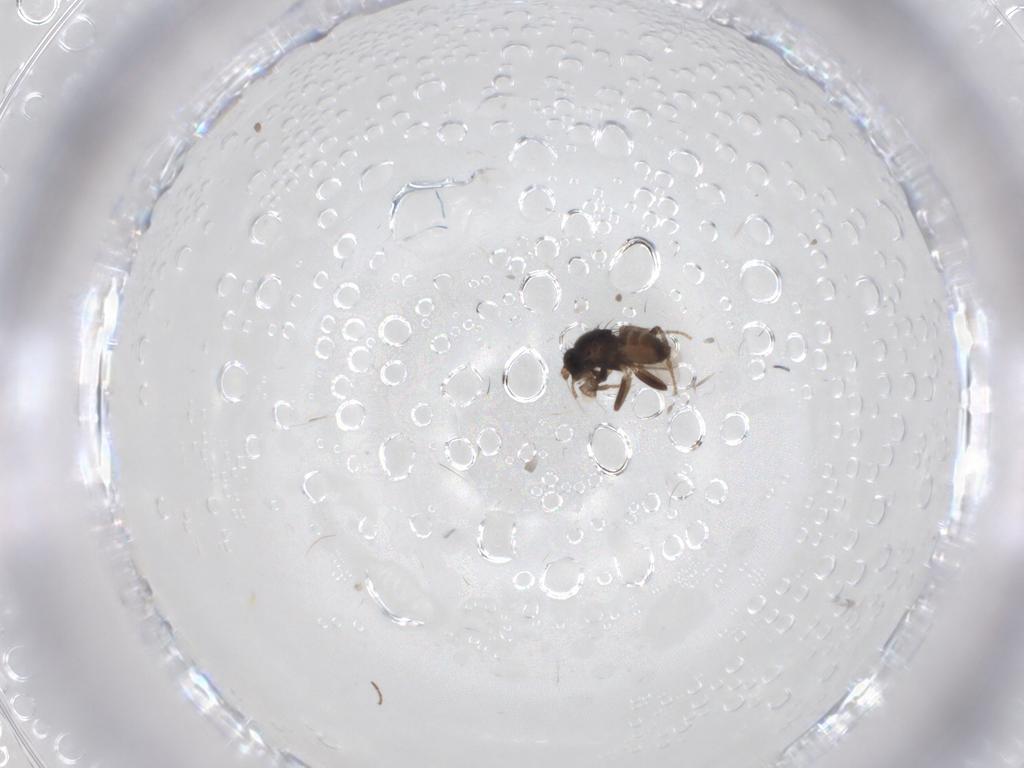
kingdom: Animalia
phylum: Arthropoda
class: Insecta
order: Diptera
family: Sphaeroceridae
